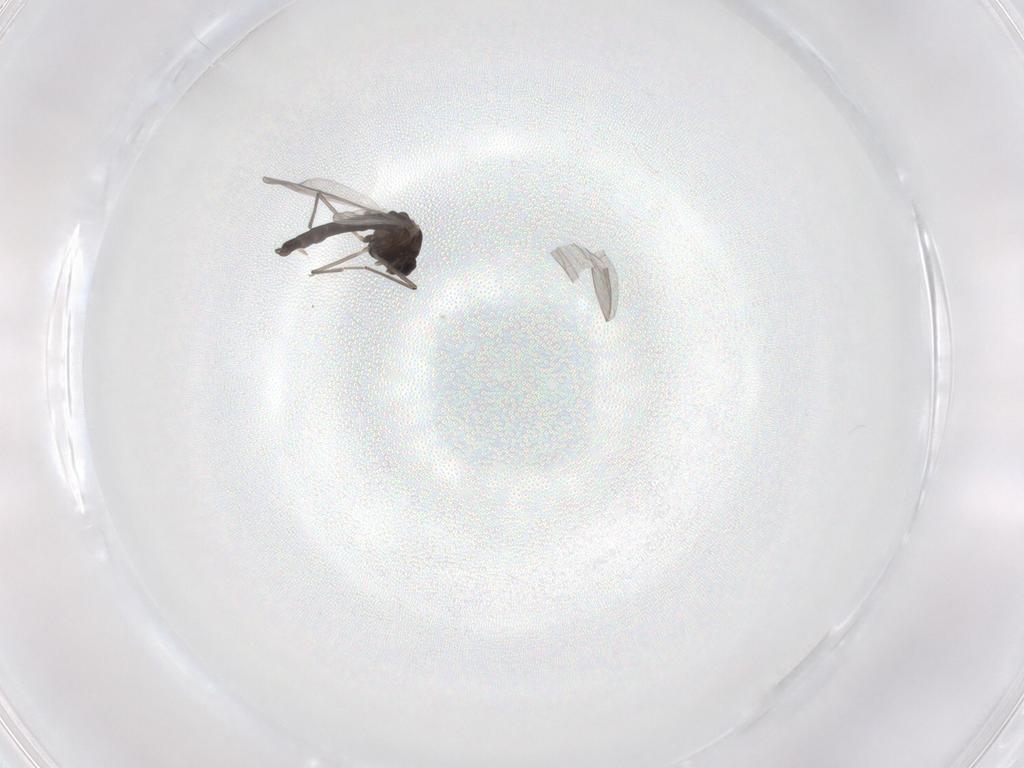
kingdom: Animalia
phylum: Arthropoda
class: Insecta
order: Diptera
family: Chironomidae
